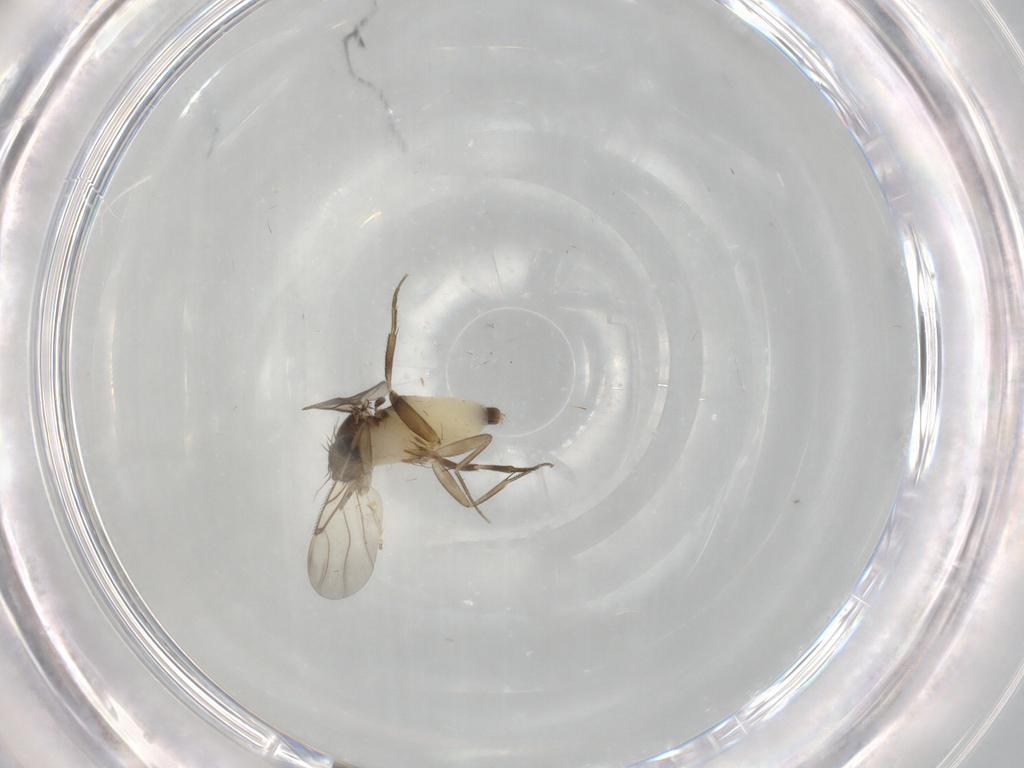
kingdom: Animalia
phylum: Arthropoda
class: Insecta
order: Diptera
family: Phoridae
